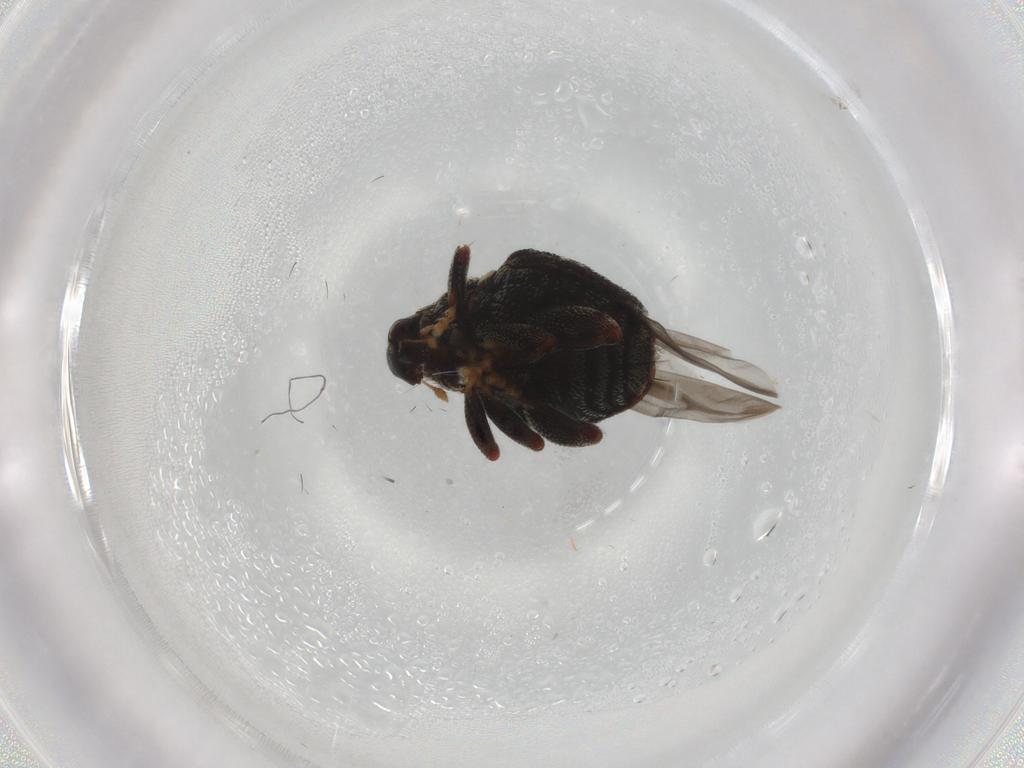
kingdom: Animalia
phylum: Arthropoda
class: Insecta
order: Coleoptera
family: Curculionidae
